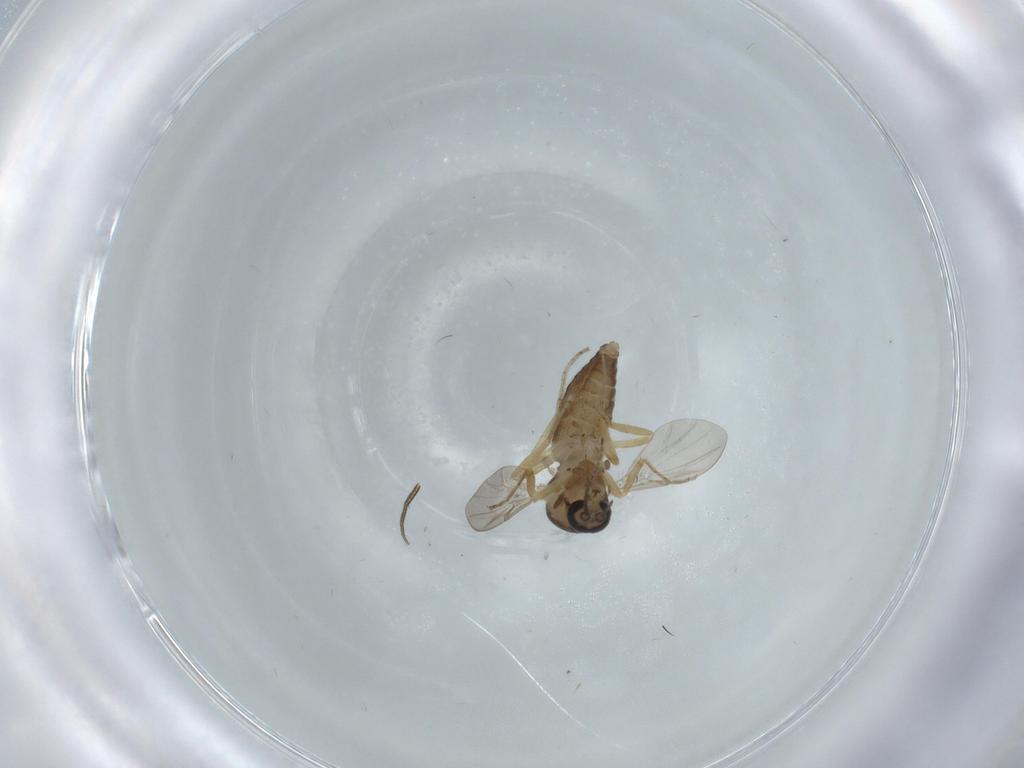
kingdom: Animalia
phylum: Arthropoda
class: Insecta
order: Diptera
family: Ceratopogonidae
